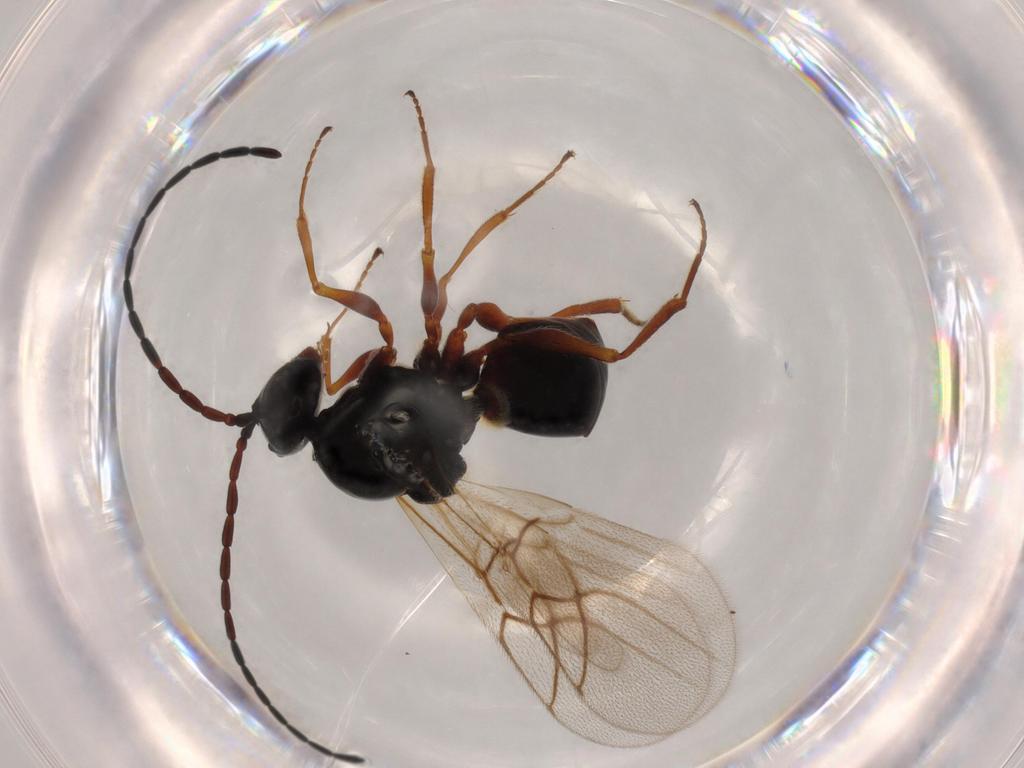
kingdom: Animalia
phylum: Arthropoda
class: Insecta
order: Hymenoptera
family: Figitidae
